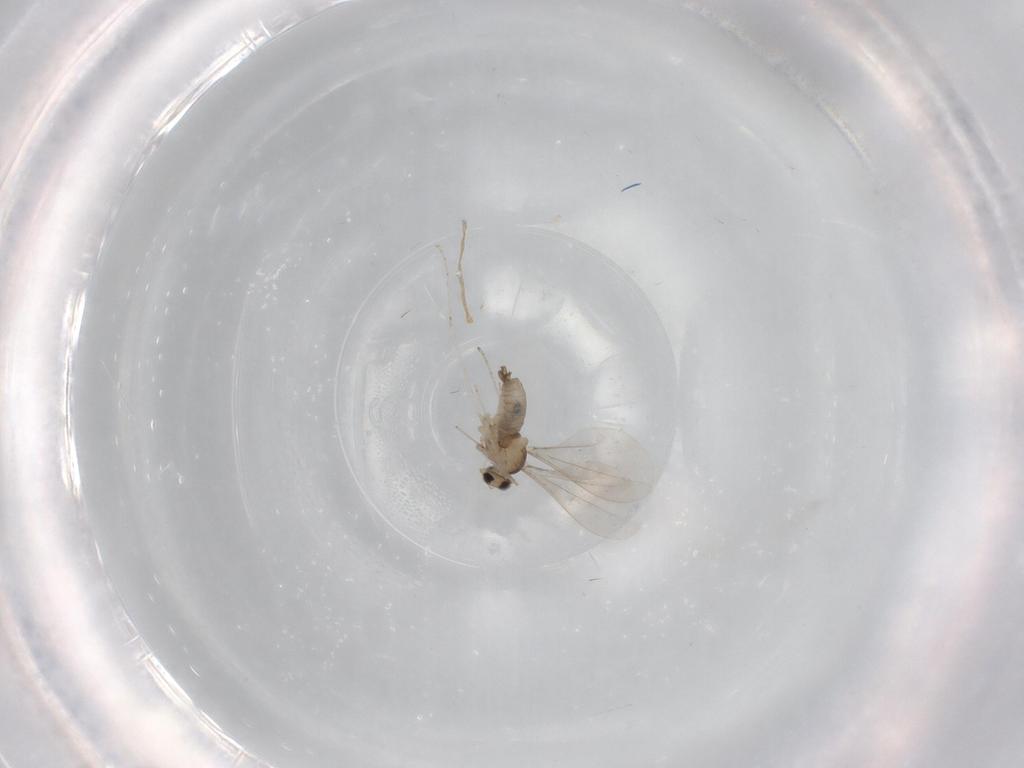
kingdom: Animalia
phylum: Arthropoda
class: Insecta
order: Diptera
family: Cecidomyiidae
